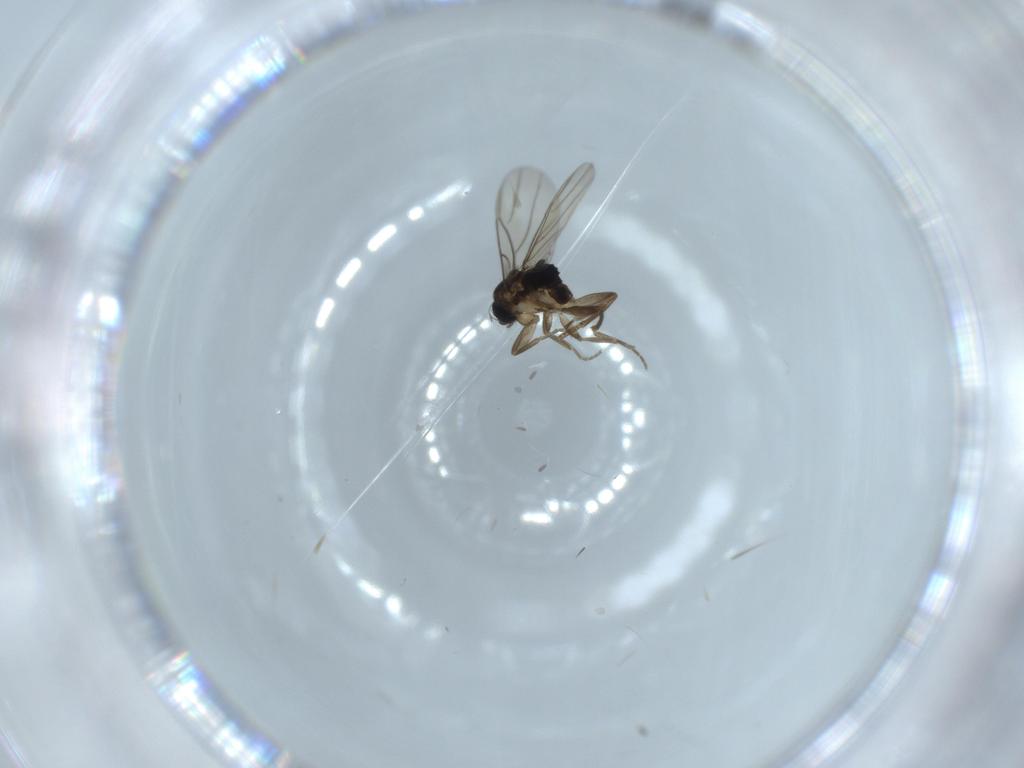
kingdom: Animalia
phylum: Arthropoda
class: Insecta
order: Diptera
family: Phoridae
